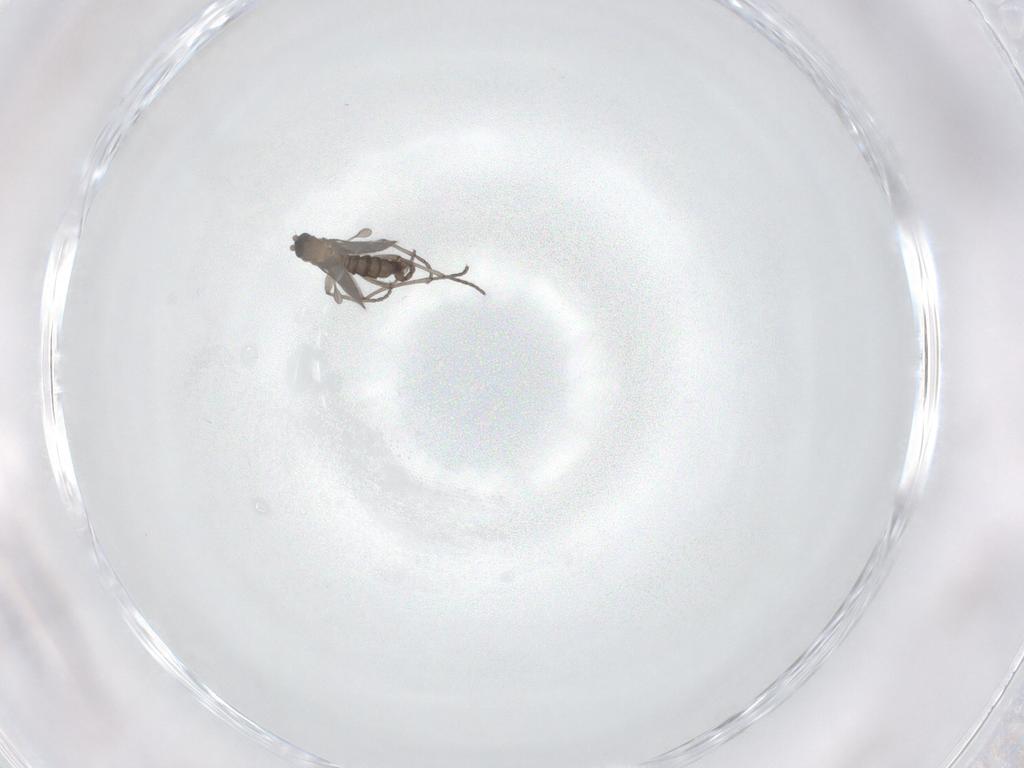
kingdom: Animalia
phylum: Arthropoda
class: Insecta
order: Diptera
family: Sciaridae
